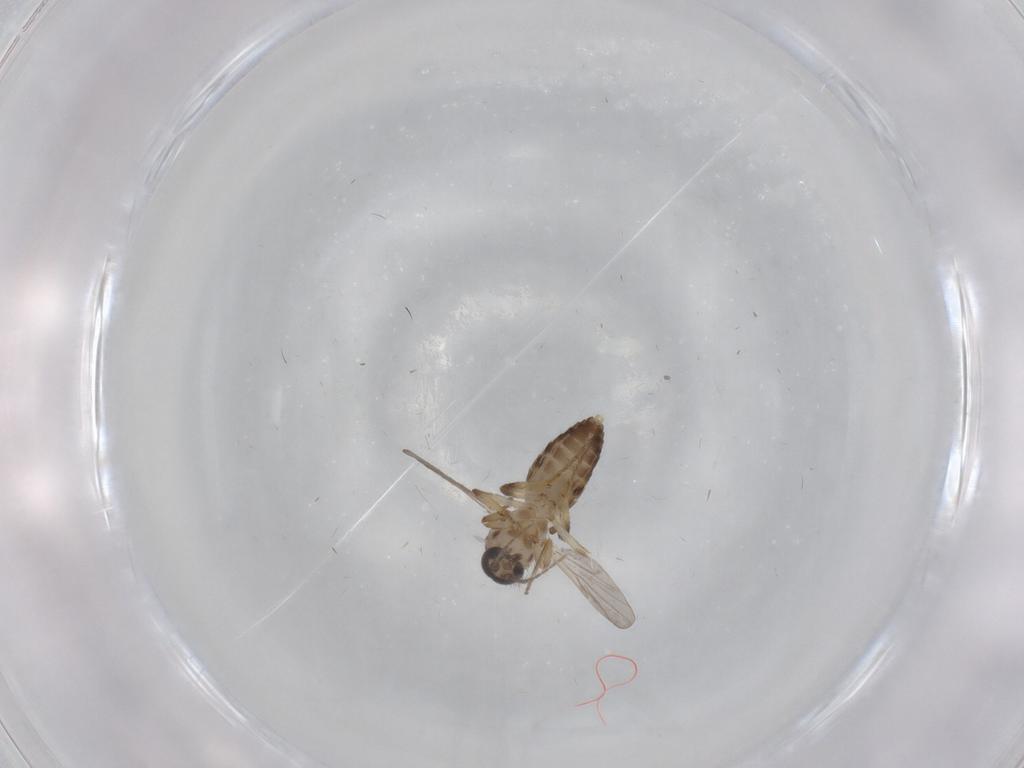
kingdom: Animalia
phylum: Arthropoda
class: Insecta
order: Diptera
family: Ceratopogonidae
